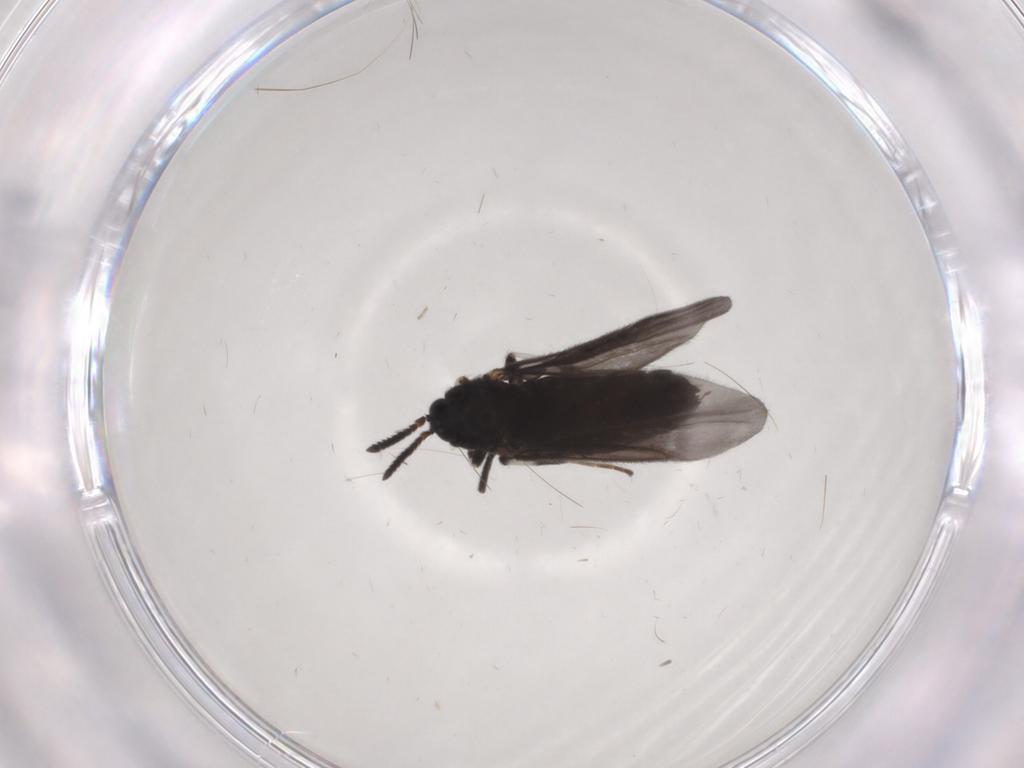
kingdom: Animalia
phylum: Arthropoda
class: Insecta
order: Diptera
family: Scatopsidae
